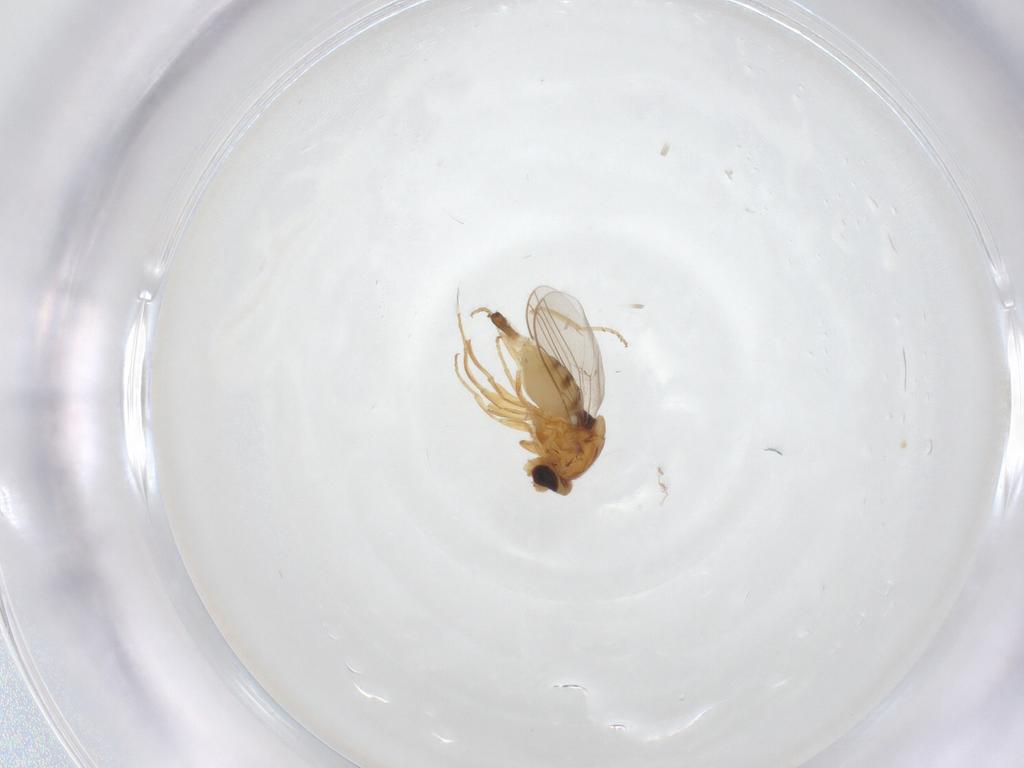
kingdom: Animalia
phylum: Arthropoda
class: Insecta
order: Diptera
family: Chloropidae
